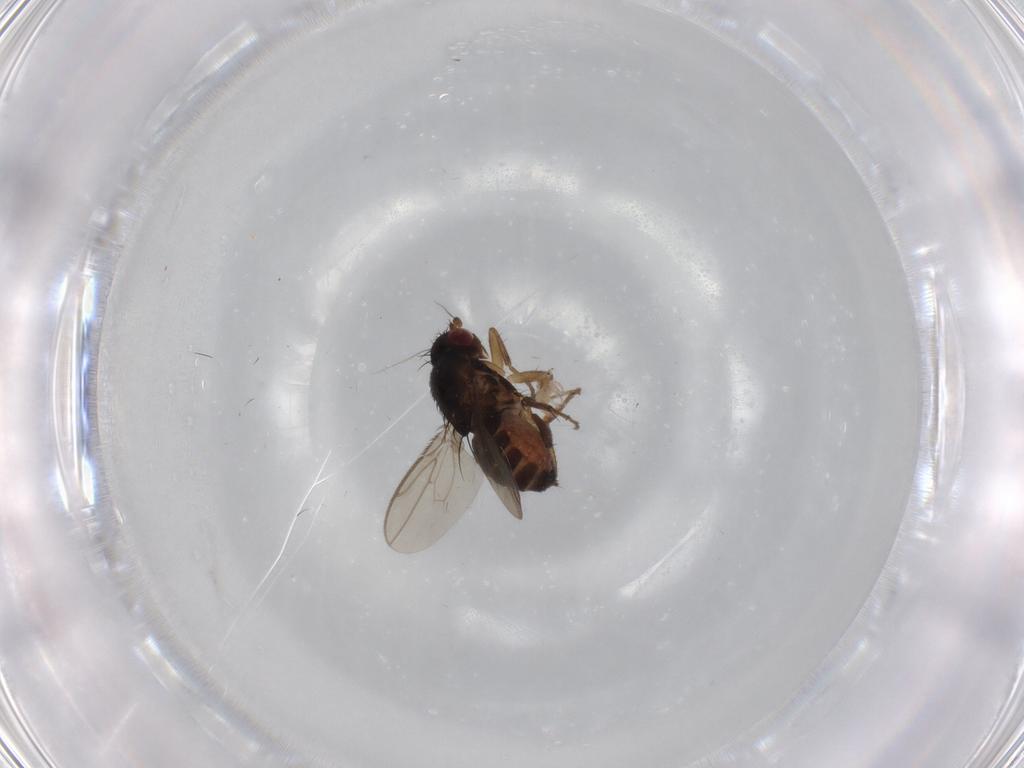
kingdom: Animalia
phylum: Arthropoda
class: Insecta
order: Diptera
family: Sphaeroceridae
